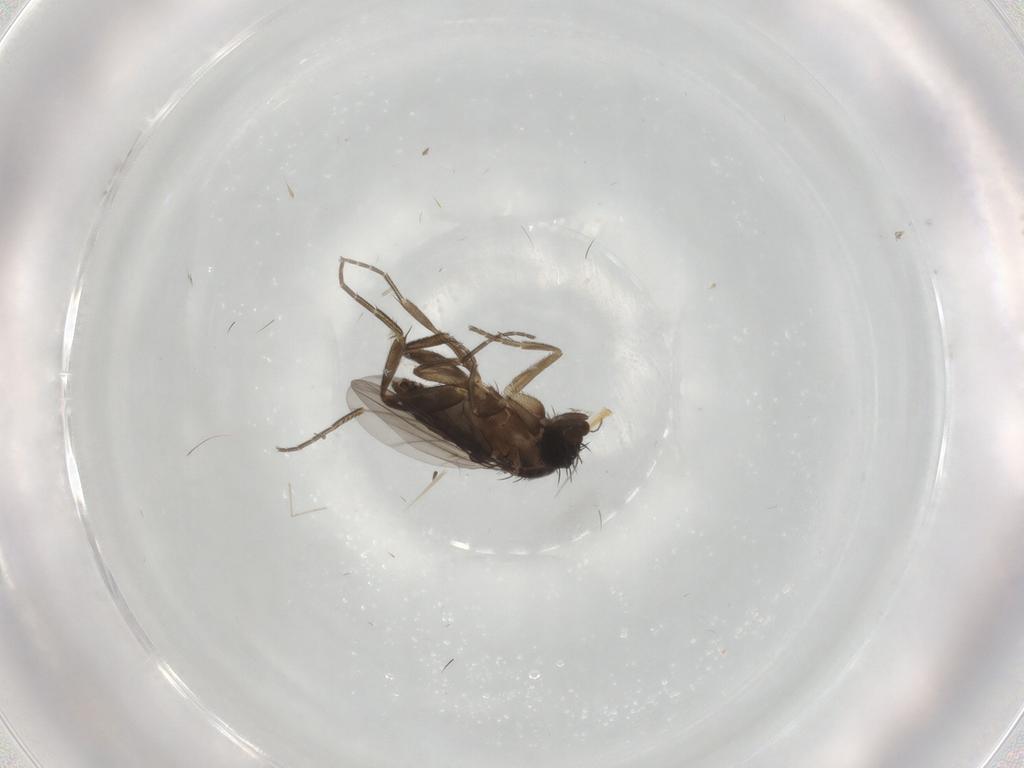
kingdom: Animalia
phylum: Arthropoda
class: Insecta
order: Diptera
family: Phoridae
